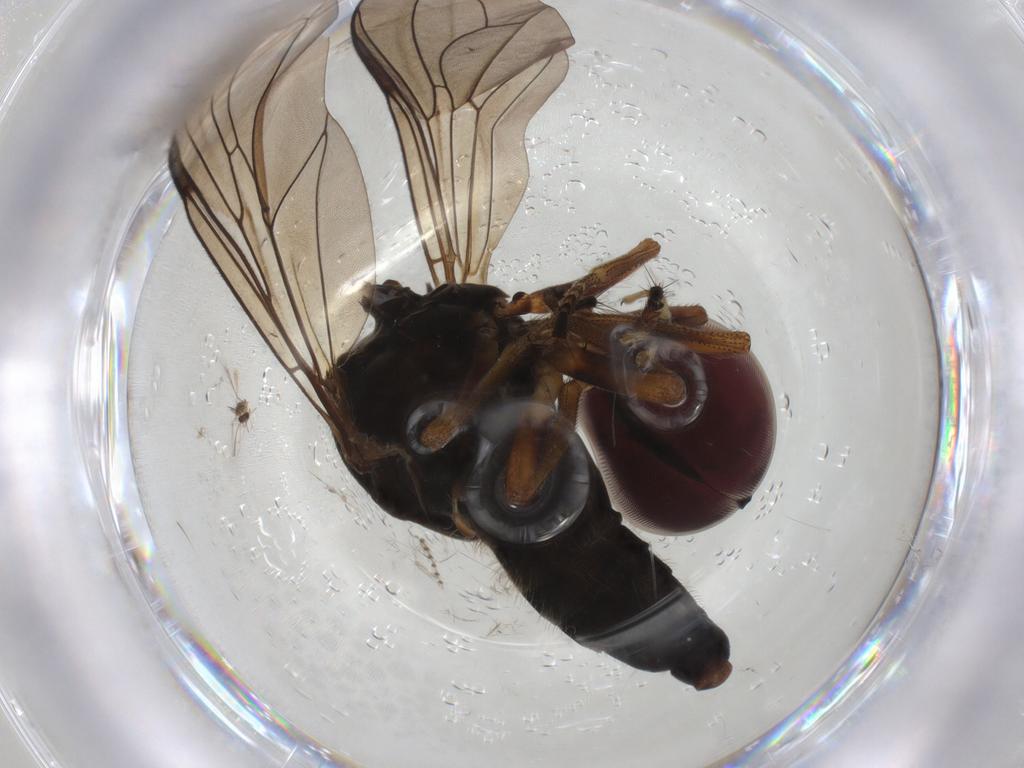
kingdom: Animalia
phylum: Arthropoda
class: Insecta
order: Diptera
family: Pipunculidae
